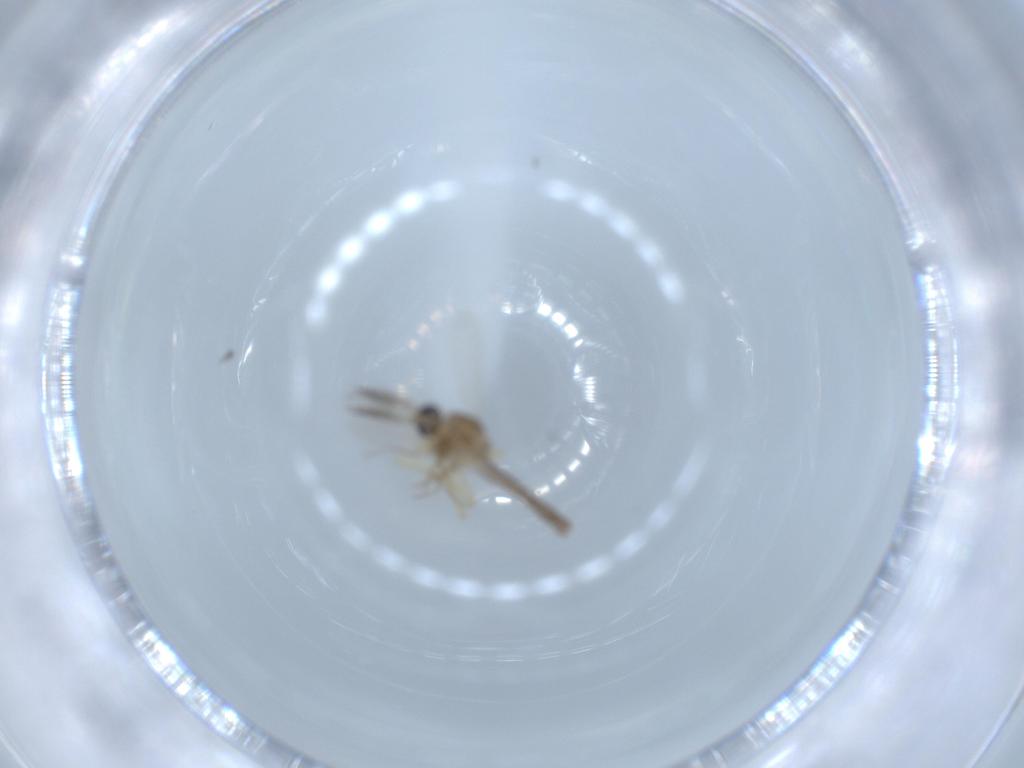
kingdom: Animalia
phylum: Arthropoda
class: Insecta
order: Diptera
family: Ceratopogonidae
